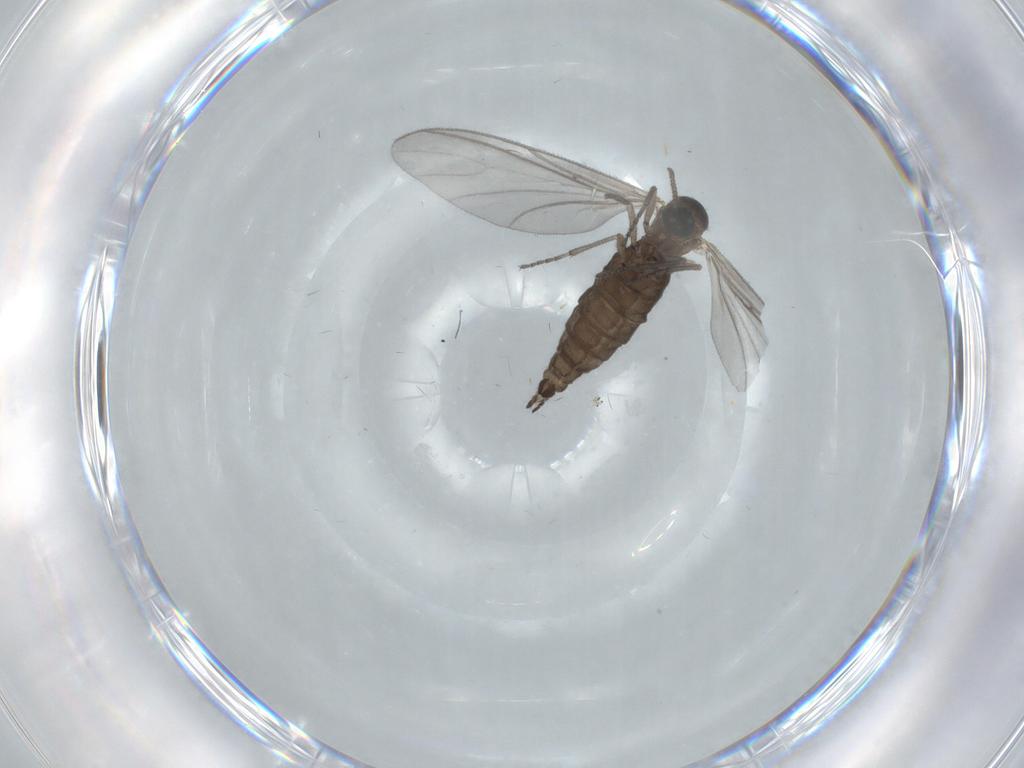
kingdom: Animalia
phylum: Arthropoda
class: Insecta
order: Diptera
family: Sciaridae
